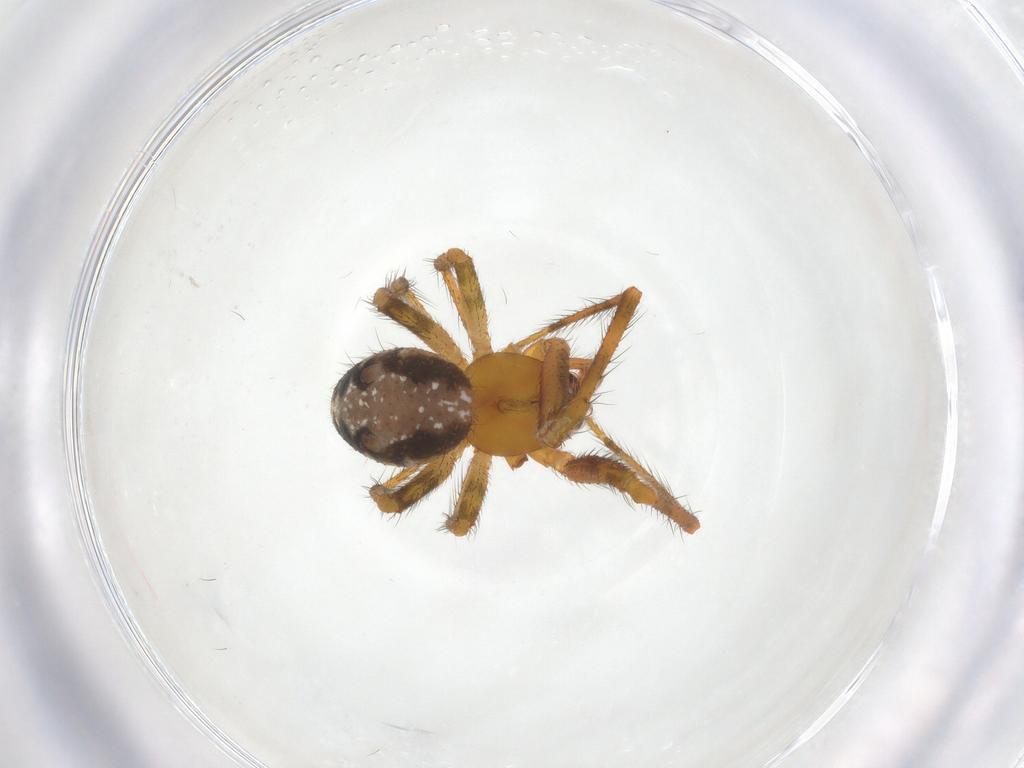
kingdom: Animalia
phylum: Arthropoda
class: Arachnida
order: Araneae
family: Theridiidae
